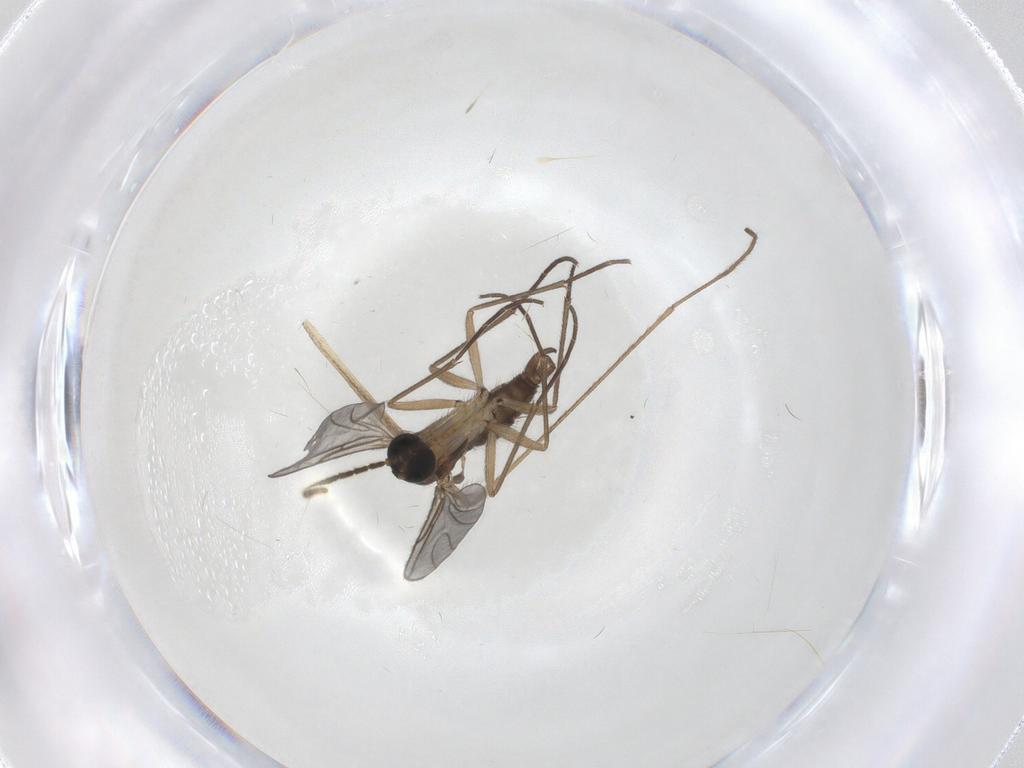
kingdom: Animalia
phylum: Arthropoda
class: Insecta
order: Diptera
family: Limoniidae
